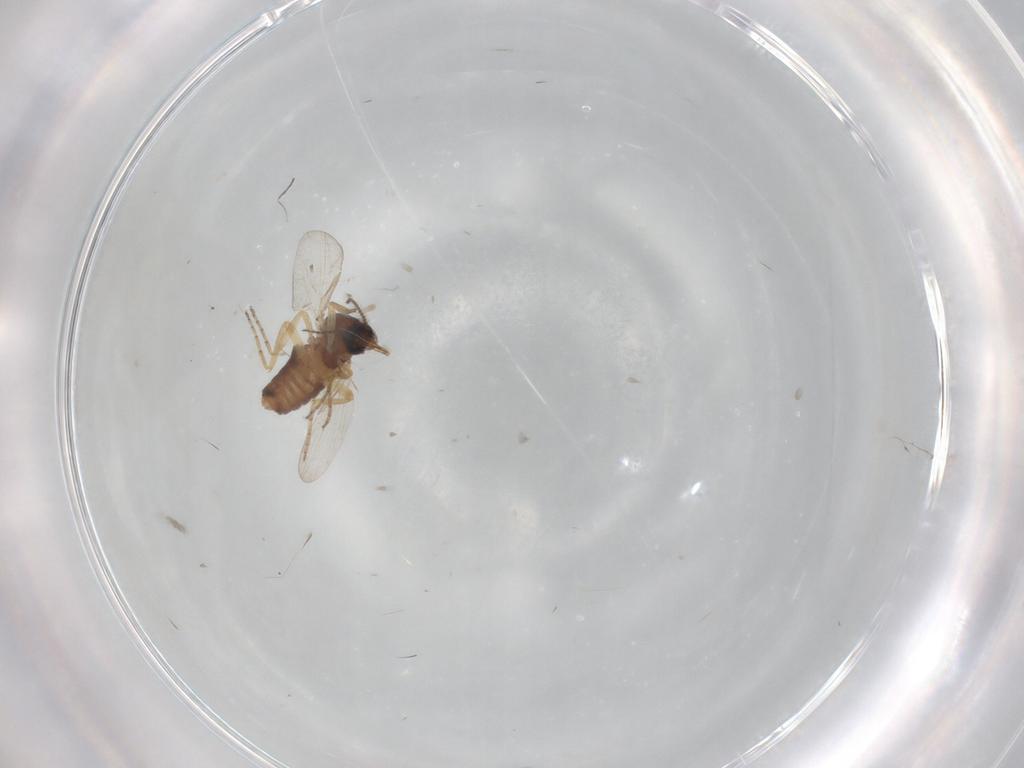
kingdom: Animalia
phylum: Arthropoda
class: Insecta
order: Diptera
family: Ceratopogonidae
